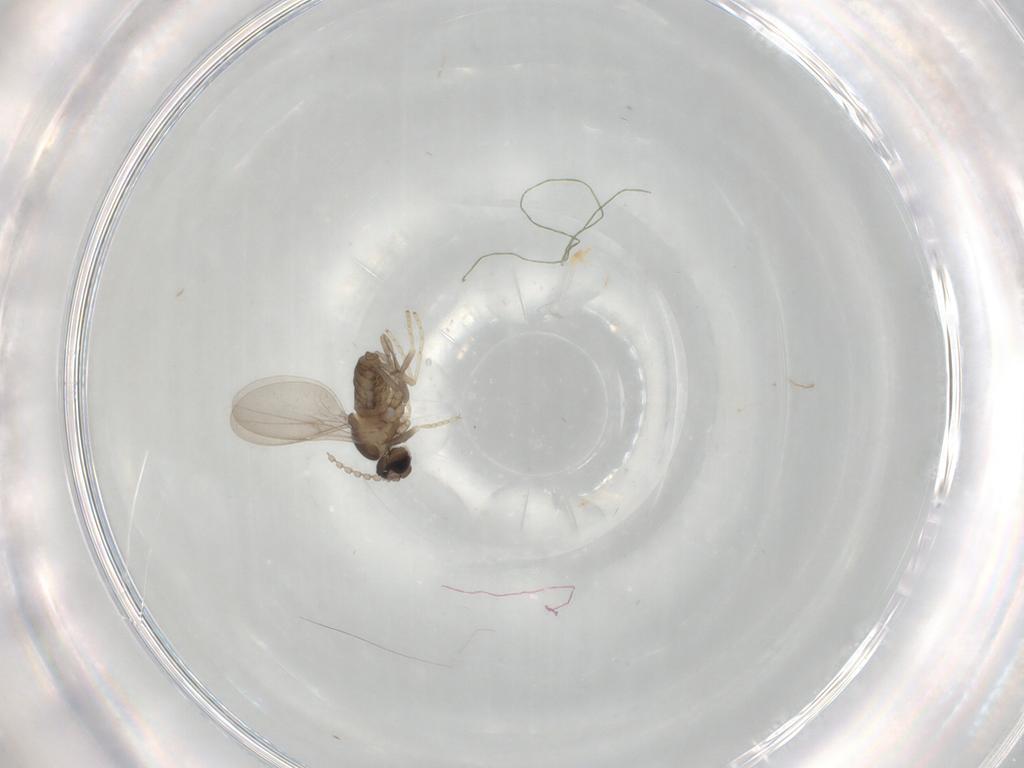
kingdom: Animalia
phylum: Arthropoda
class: Insecta
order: Diptera
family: Cecidomyiidae
